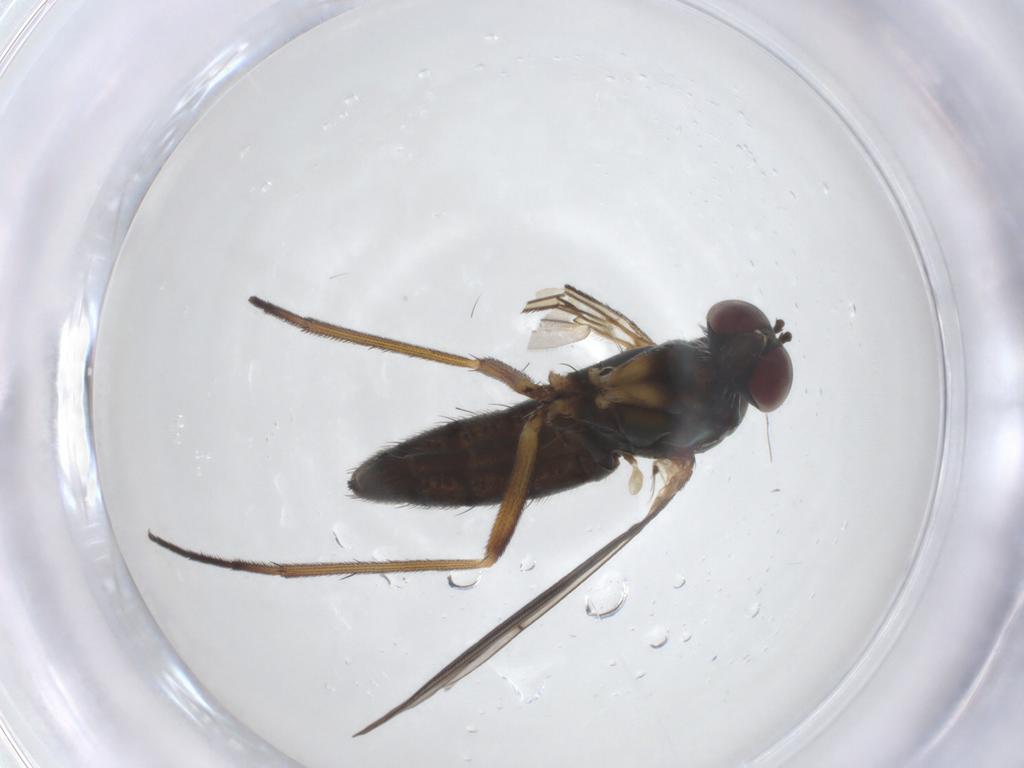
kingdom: Animalia
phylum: Arthropoda
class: Insecta
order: Diptera
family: Dolichopodidae
